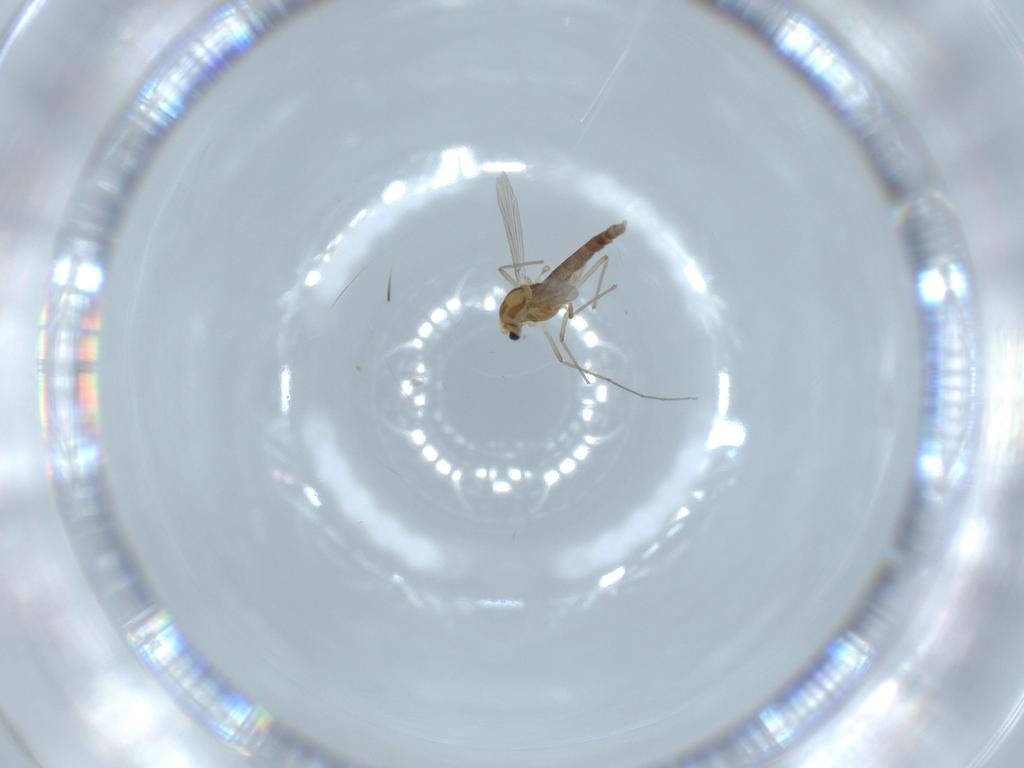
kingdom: Animalia
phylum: Arthropoda
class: Insecta
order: Diptera
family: Chironomidae
